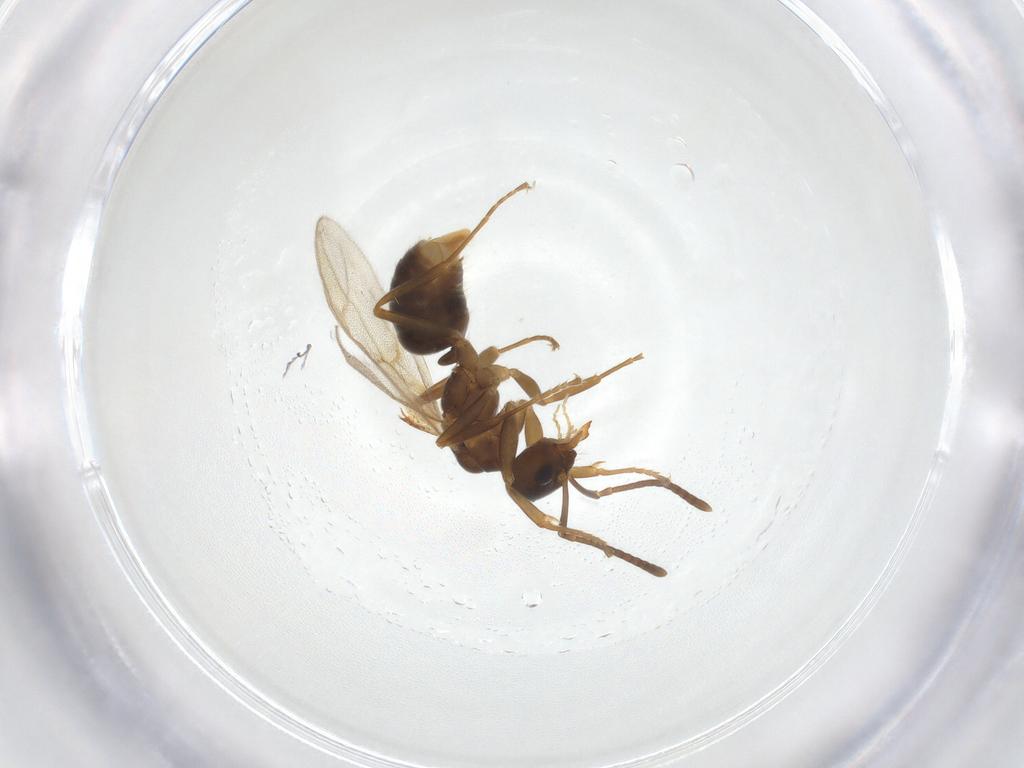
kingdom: Animalia
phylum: Arthropoda
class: Insecta
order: Hymenoptera
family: Formicidae
